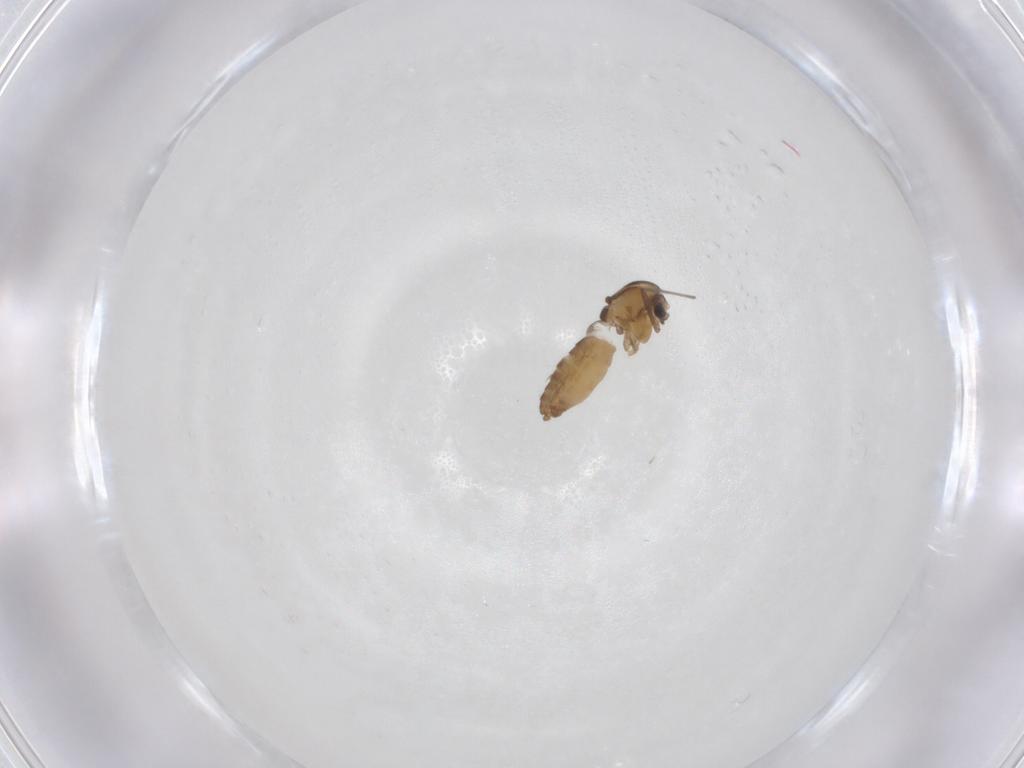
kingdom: Animalia
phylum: Arthropoda
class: Insecta
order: Diptera
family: Chironomidae
